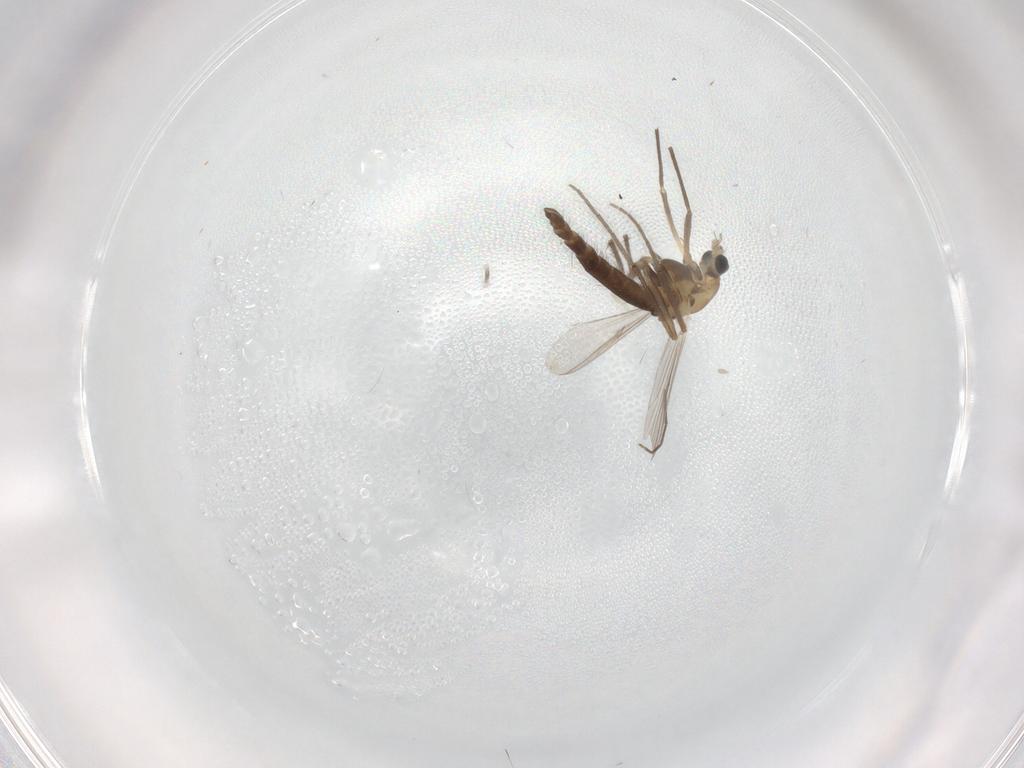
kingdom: Animalia
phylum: Arthropoda
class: Insecta
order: Diptera
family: Chironomidae
